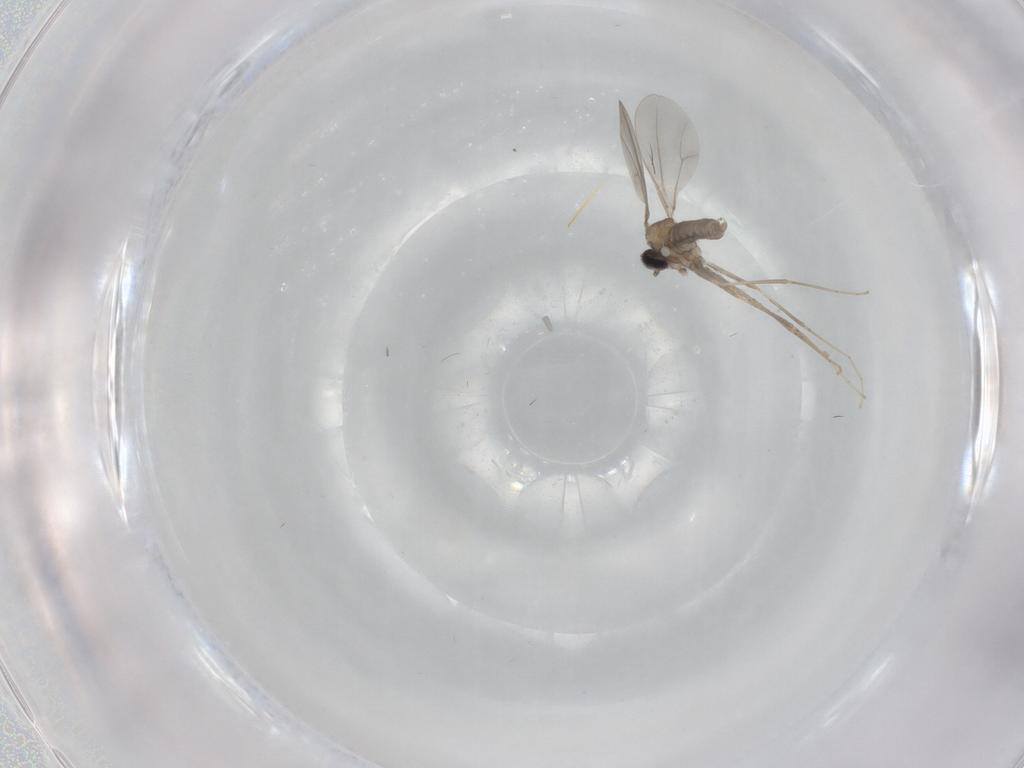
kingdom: Animalia
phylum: Arthropoda
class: Insecta
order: Diptera
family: Cecidomyiidae
